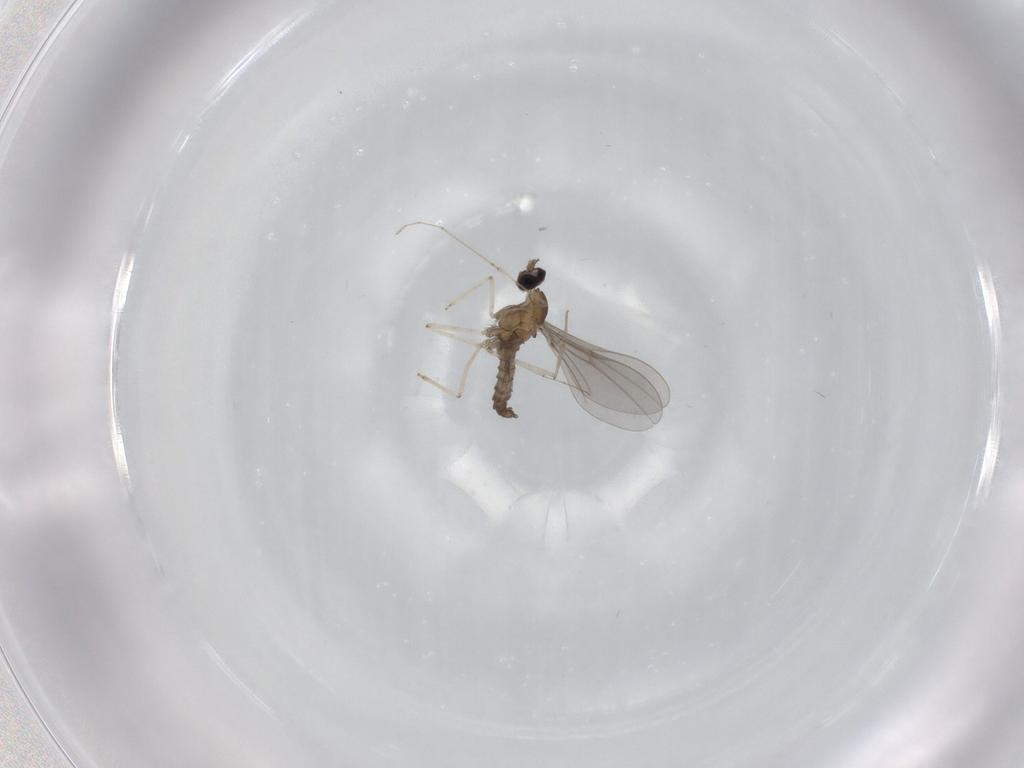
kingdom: Animalia
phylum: Arthropoda
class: Insecta
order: Diptera
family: Cecidomyiidae
